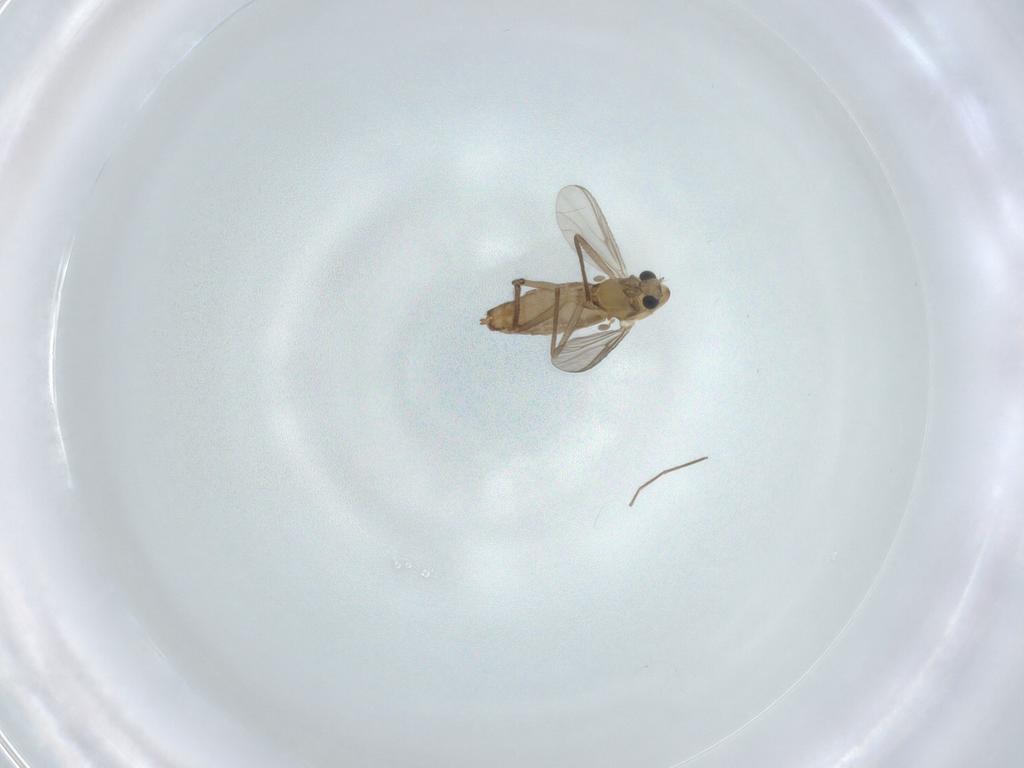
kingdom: Animalia
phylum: Arthropoda
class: Insecta
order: Diptera
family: Chironomidae
